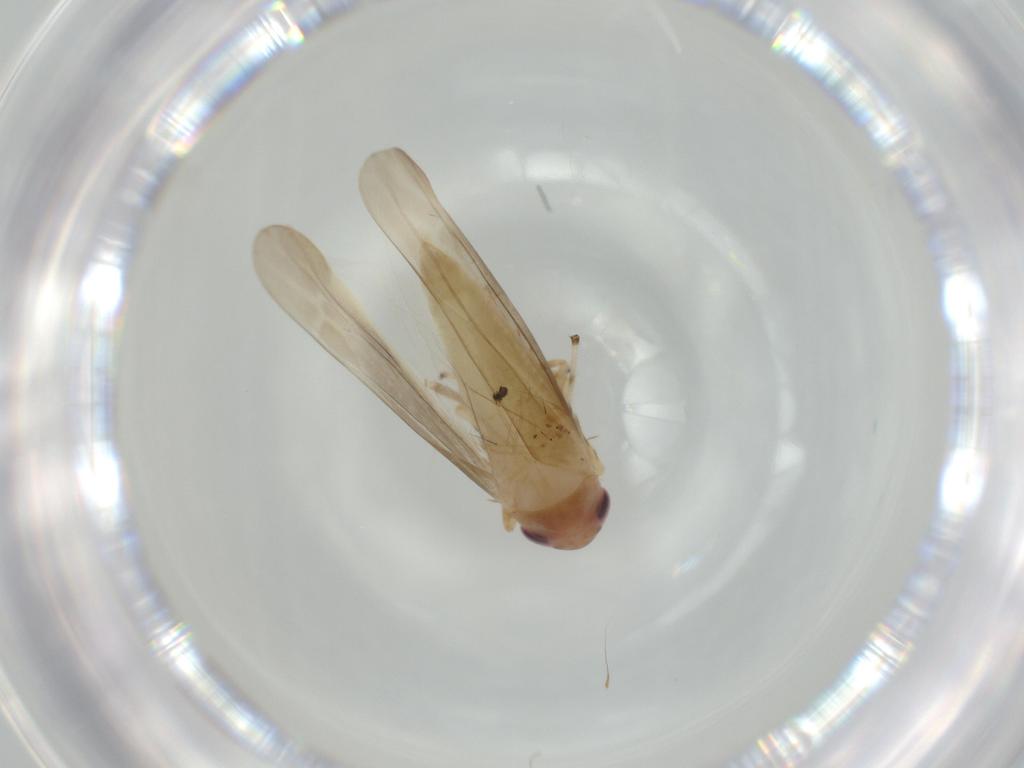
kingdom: Animalia
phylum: Arthropoda
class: Insecta
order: Hemiptera
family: Cicadellidae
